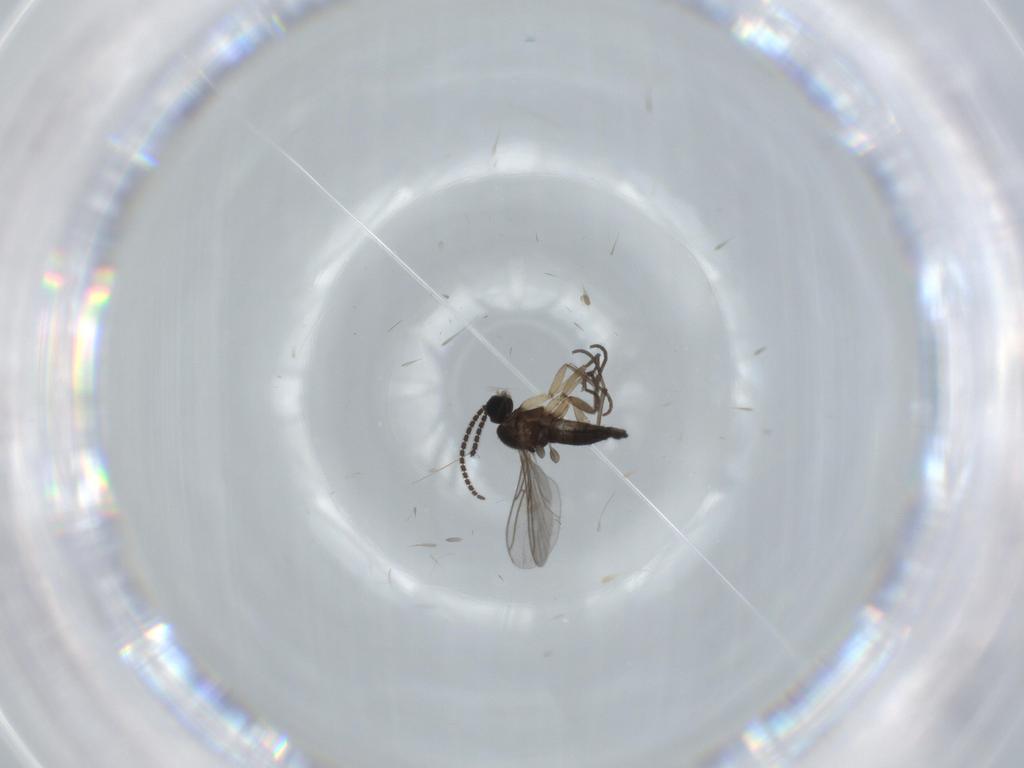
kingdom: Animalia
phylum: Arthropoda
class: Insecta
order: Diptera
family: Sciaridae
